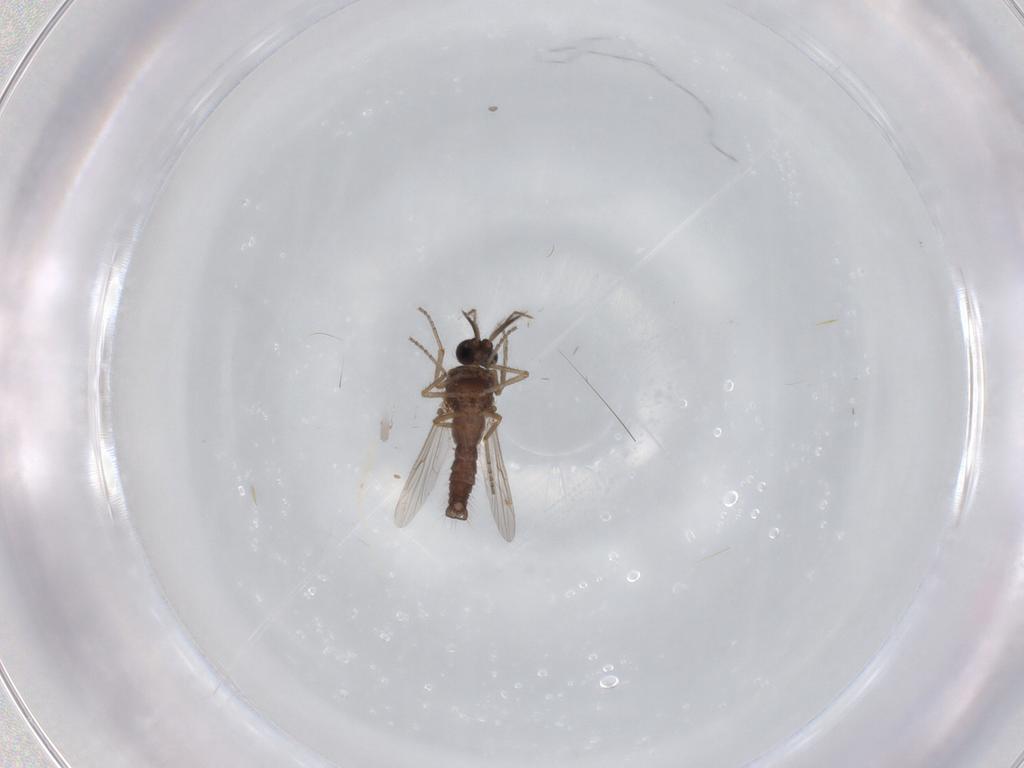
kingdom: Animalia
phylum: Arthropoda
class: Insecta
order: Diptera
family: Ceratopogonidae
